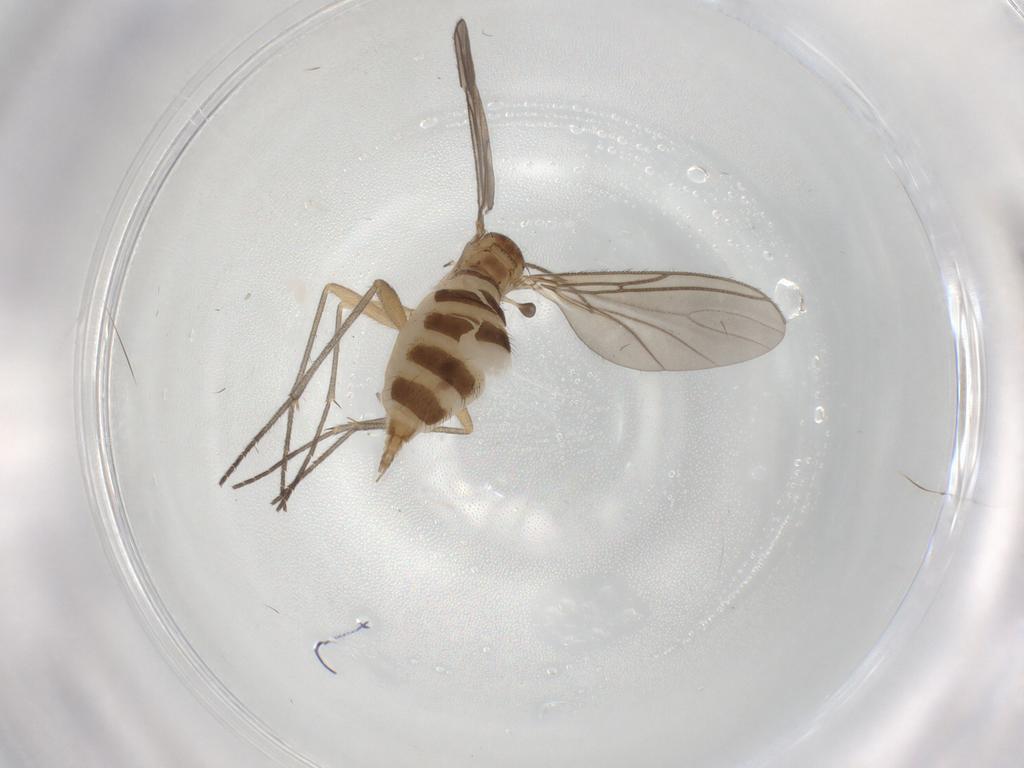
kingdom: Animalia
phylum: Arthropoda
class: Insecta
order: Diptera
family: Sciaridae
